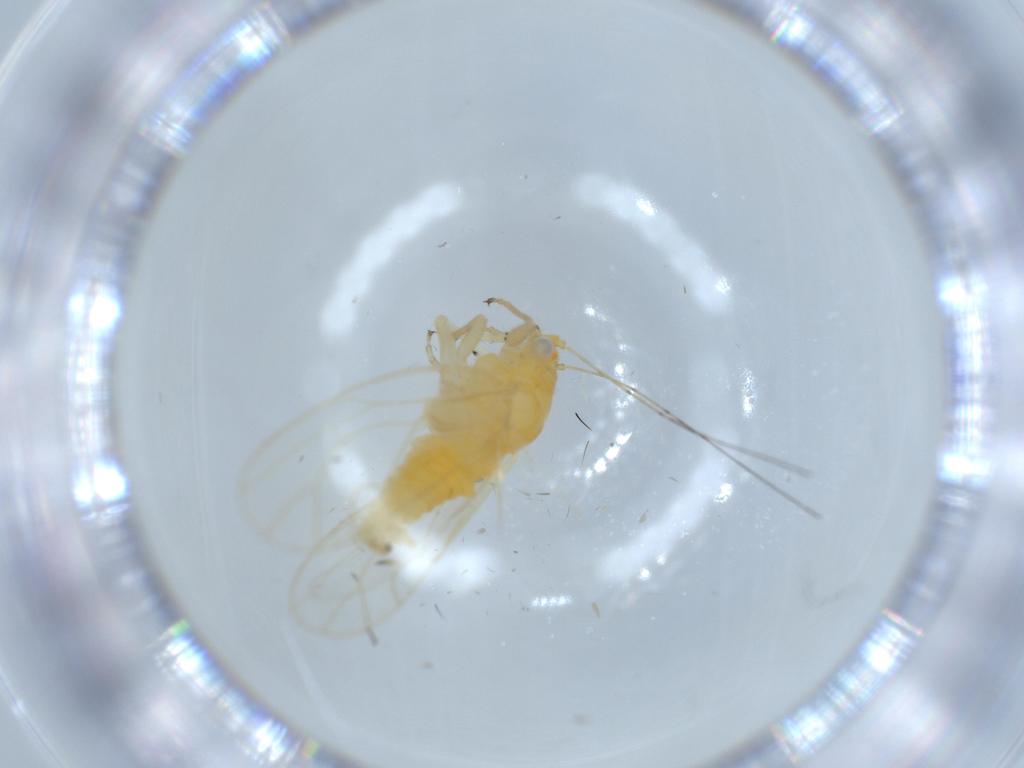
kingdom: Animalia
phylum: Arthropoda
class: Insecta
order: Hemiptera
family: Psyllidae
